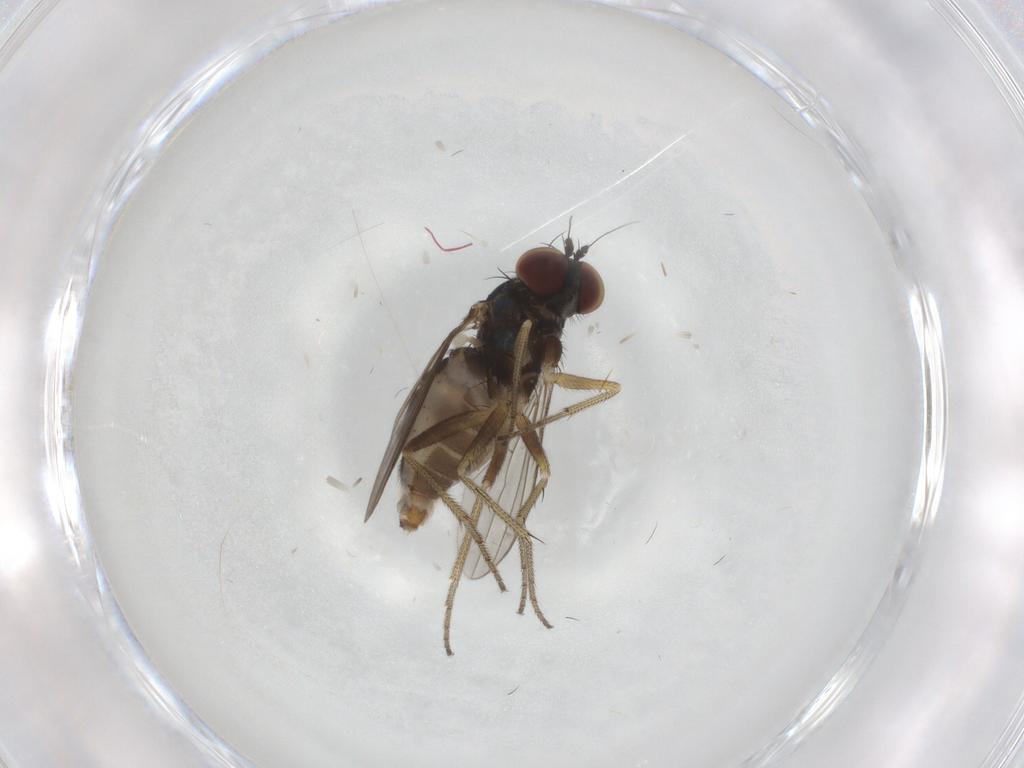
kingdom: Animalia
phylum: Arthropoda
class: Insecta
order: Diptera
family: Dolichopodidae
